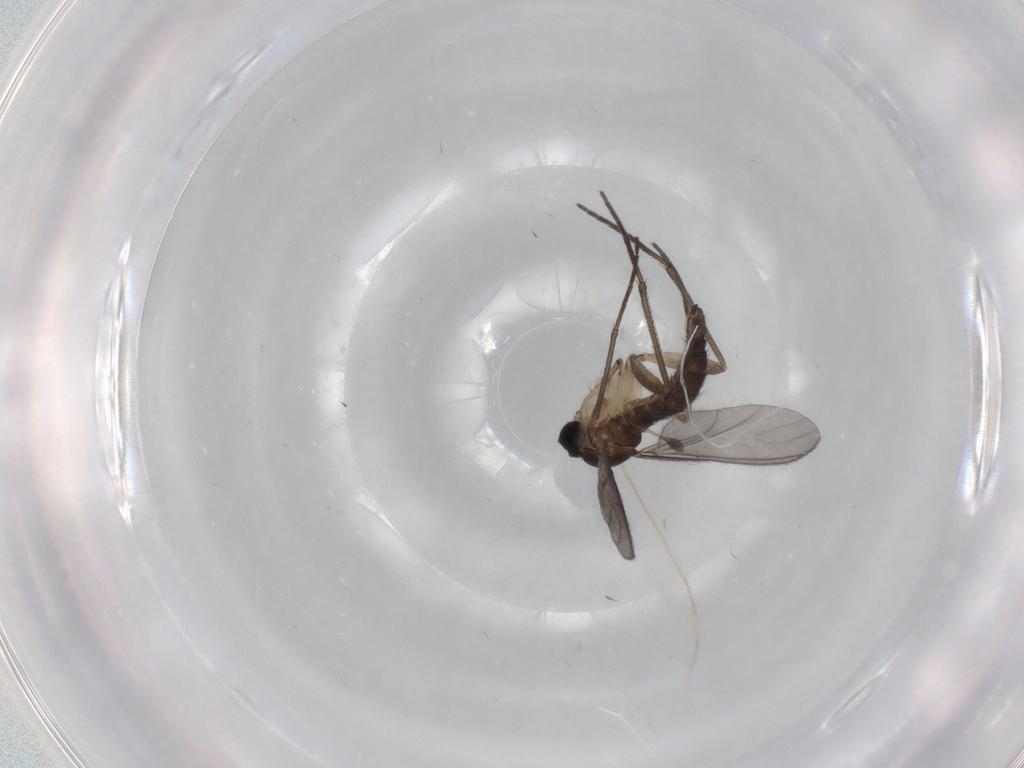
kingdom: Animalia
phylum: Arthropoda
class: Insecta
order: Diptera
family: Sciaridae
